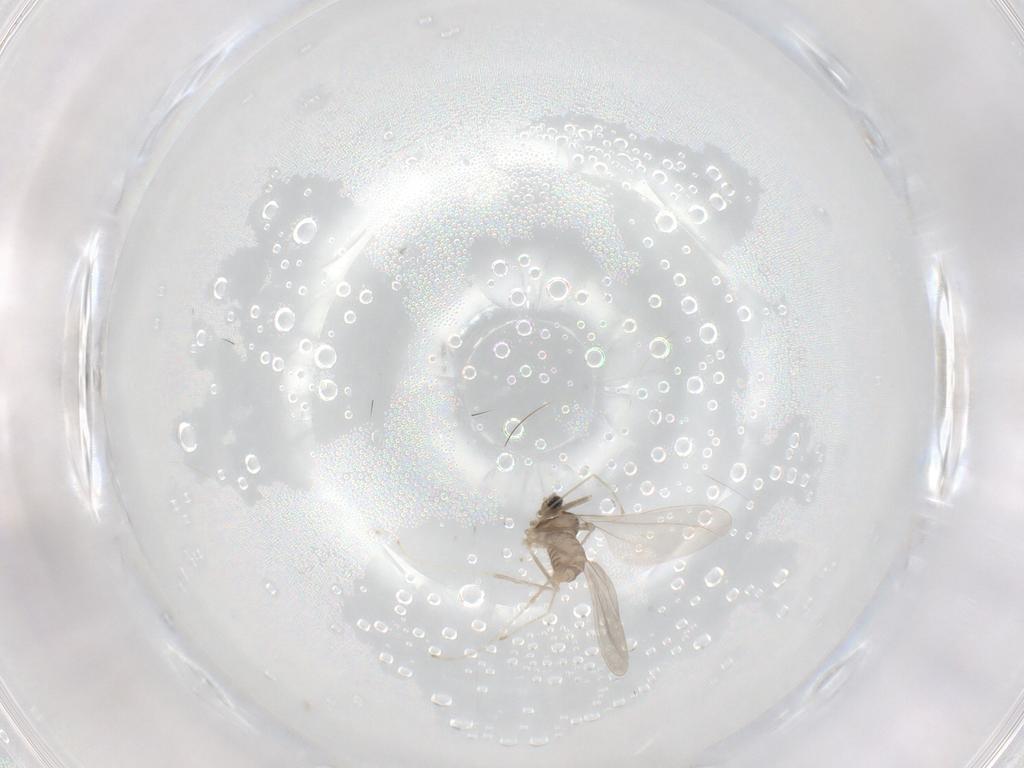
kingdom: Animalia
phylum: Arthropoda
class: Insecta
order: Diptera
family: Cecidomyiidae
